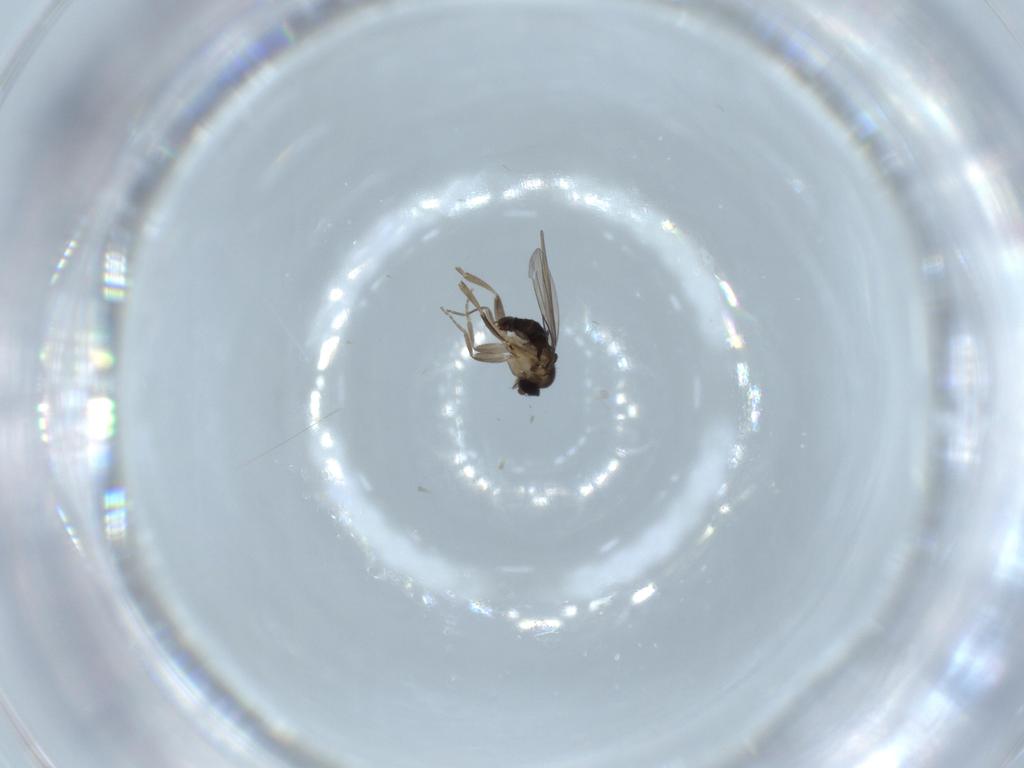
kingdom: Animalia
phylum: Arthropoda
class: Insecta
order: Diptera
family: Phoridae
